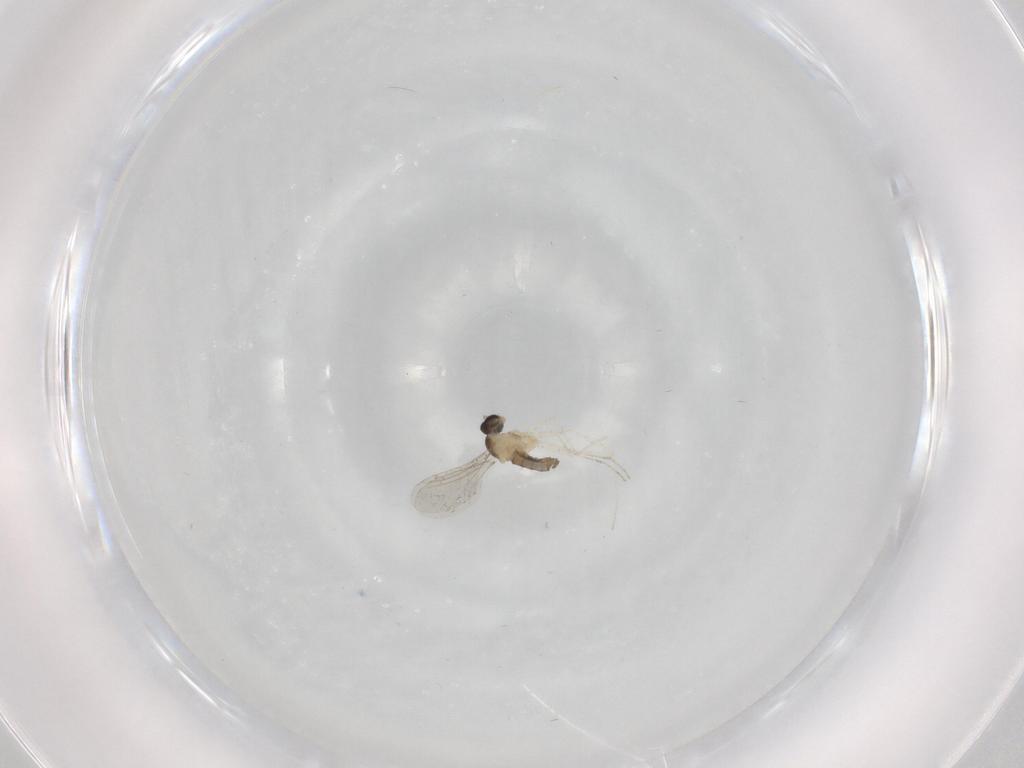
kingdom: Animalia
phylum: Arthropoda
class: Insecta
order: Diptera
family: Cecidomyiidae
